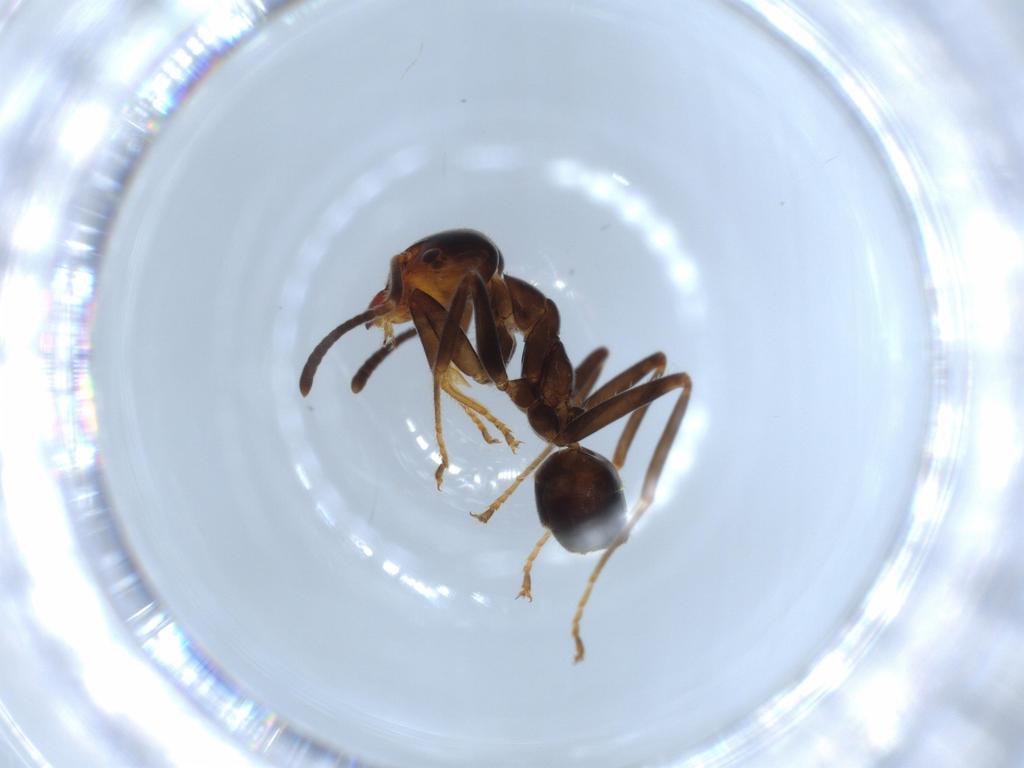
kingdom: Animalia
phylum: Arthropoda
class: Insecta
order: Hymenoptera
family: Formicidae
